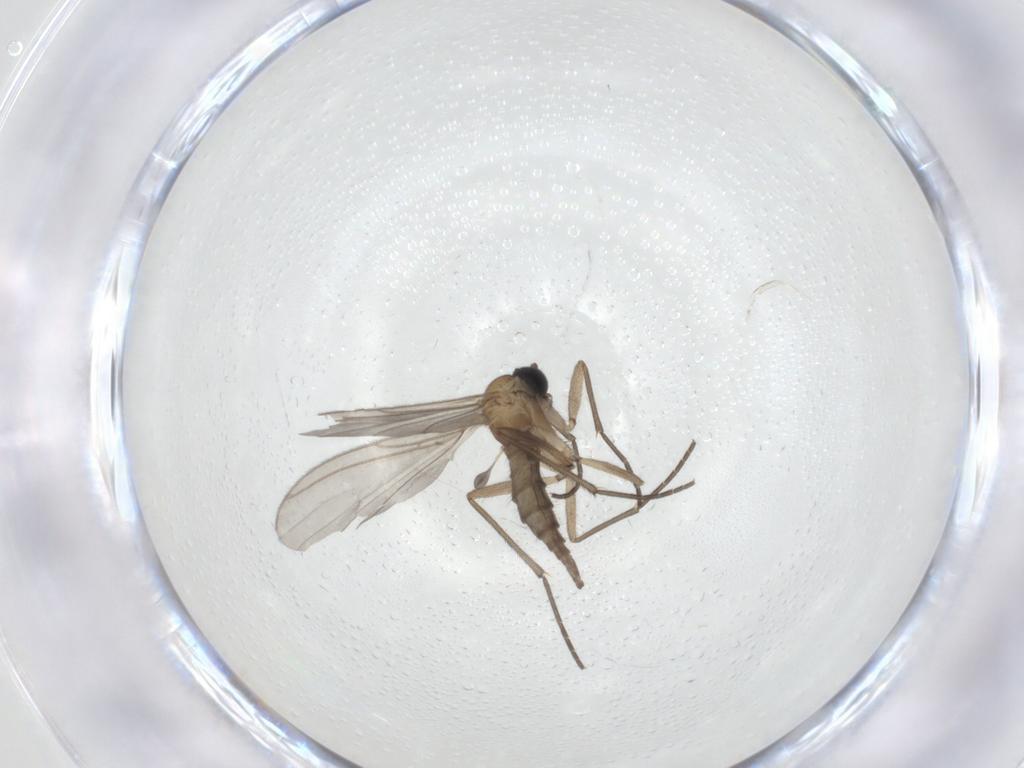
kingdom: Animalia
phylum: Arthropoda
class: Insecta
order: Diptera
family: Sciaridae
